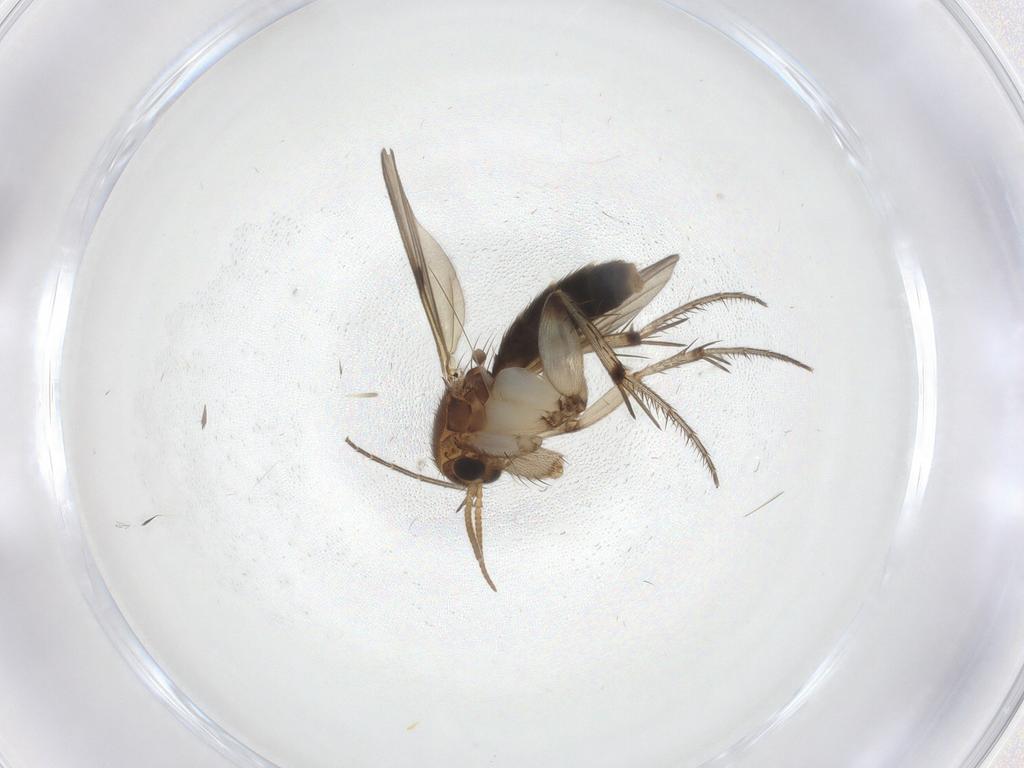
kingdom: Animalia
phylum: Arthropoda
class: Insecta
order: Diptera
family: Mycetophilidae
